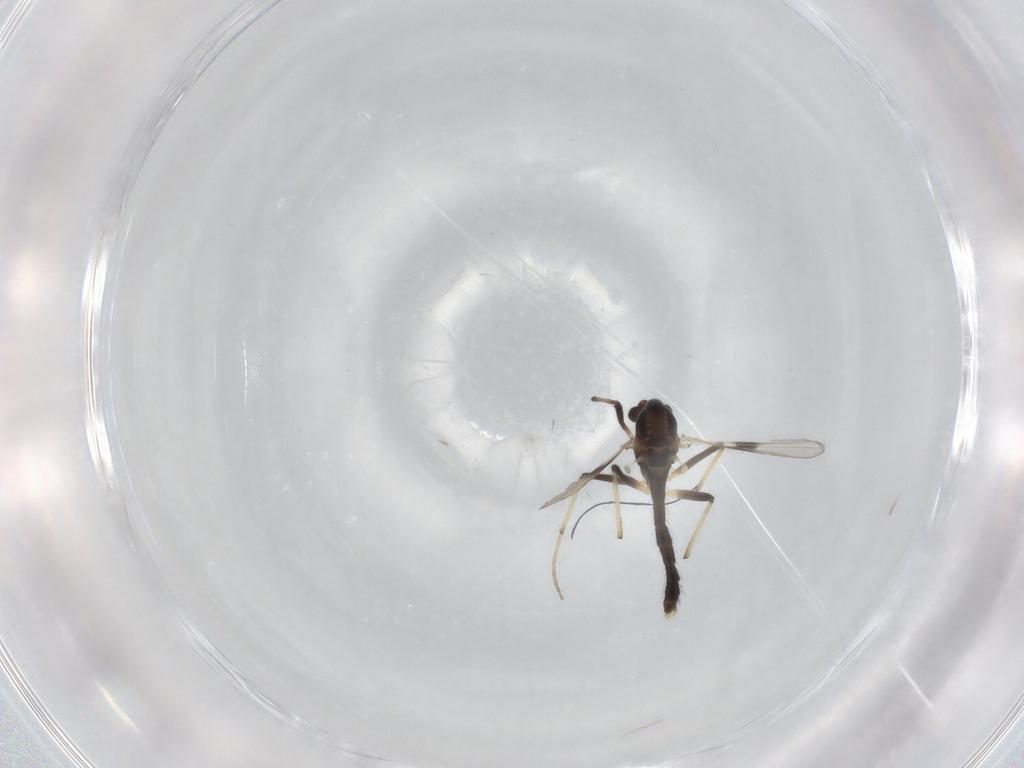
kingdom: Animalia
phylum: Arthropoda
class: Insecta
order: Diptera
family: Chironomidae
